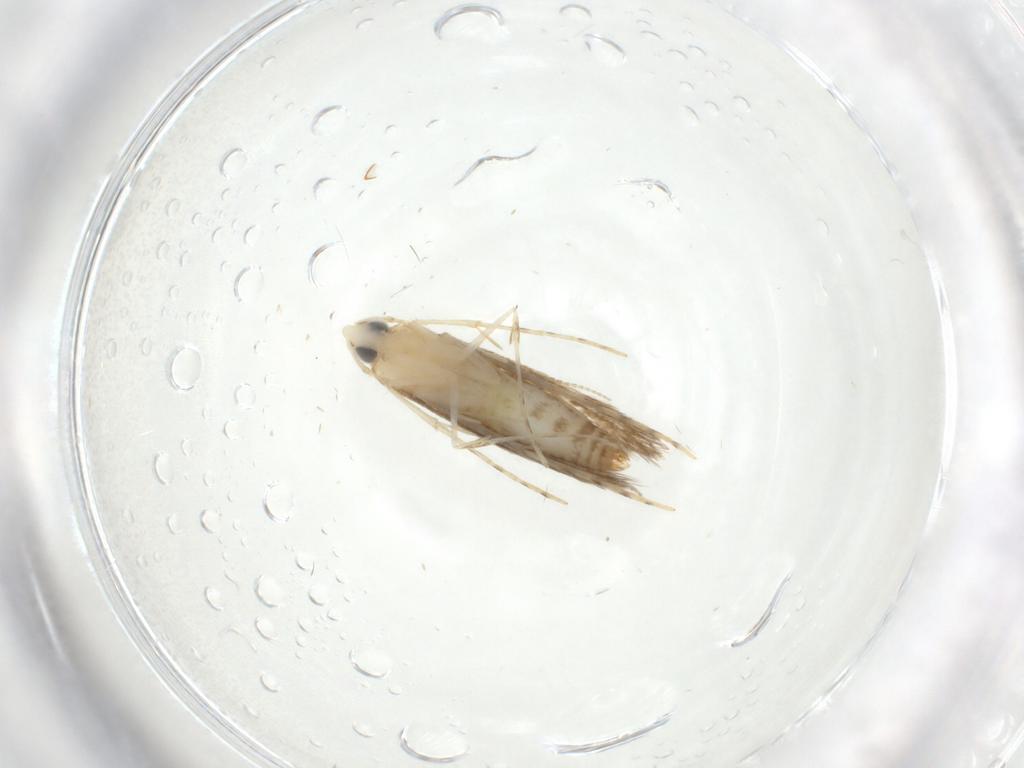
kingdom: Animalia
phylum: Arthropoda
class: Insecta
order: Lepidoptera
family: Lyonetiidae
